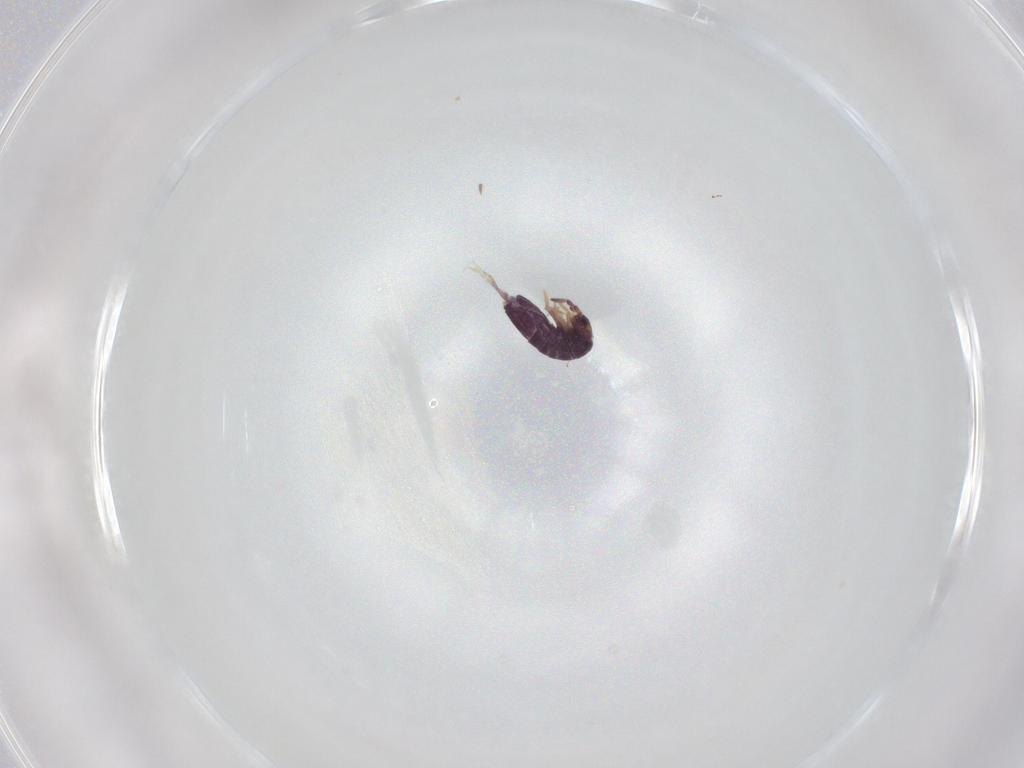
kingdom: Animalia
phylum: Arthropoda
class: Collembola
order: Entomobryomorpha
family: Entomobryidae
